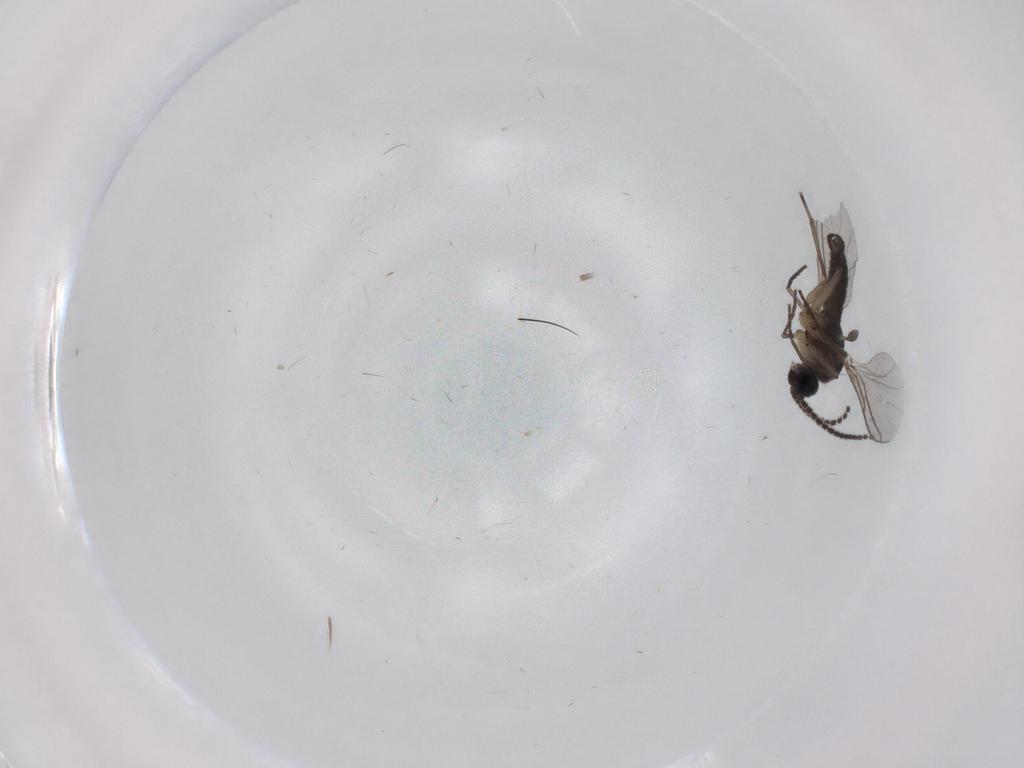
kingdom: Animalia
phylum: Arthropoda
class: Insecta
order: Diptera
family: Sciaridae
